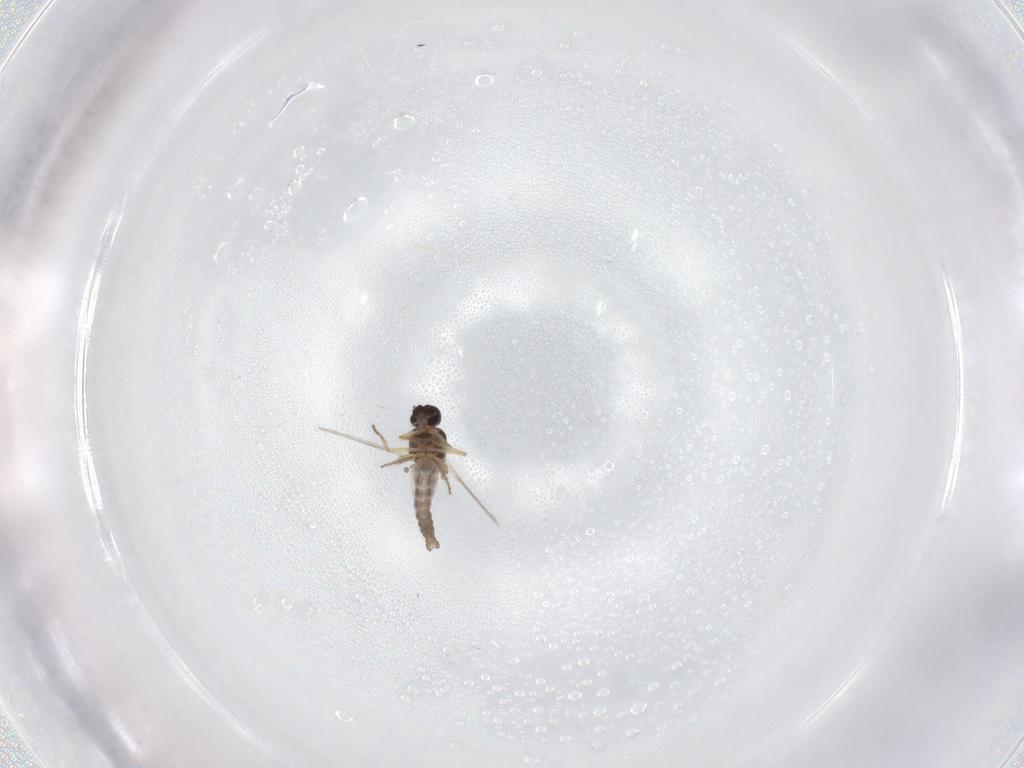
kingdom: Animalia
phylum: Arthropoda
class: Insecta
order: Diptera
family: Ceratopogonidae
